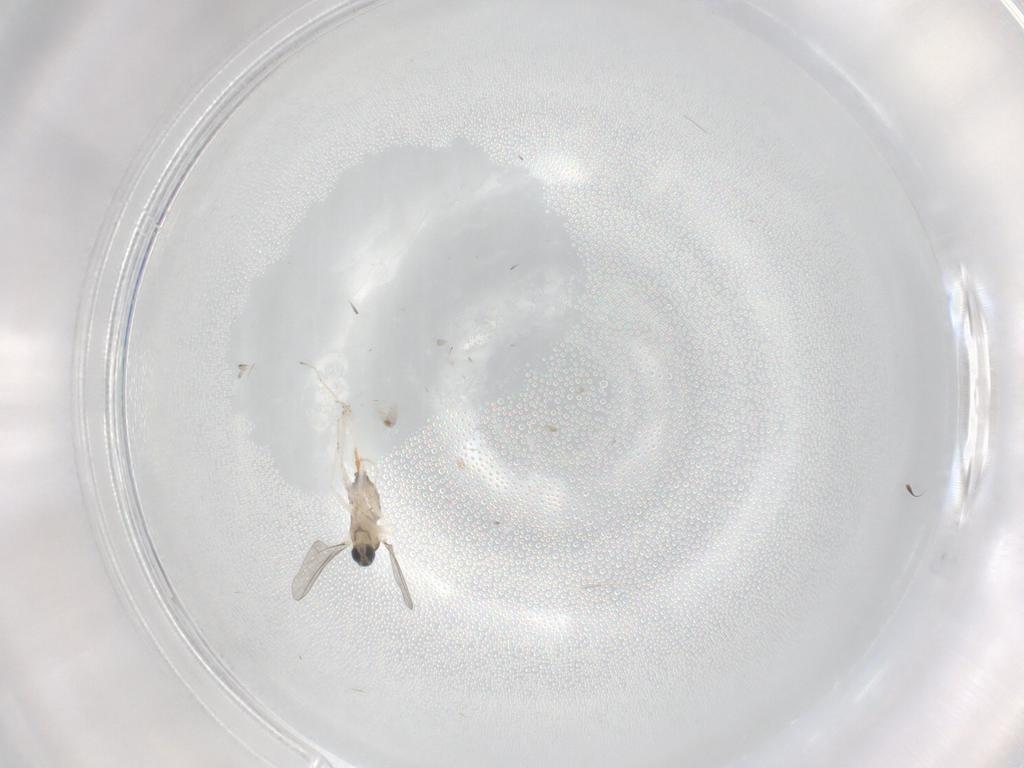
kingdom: Animalia
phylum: Arthropoda
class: Insecta
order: Diptera
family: Cecidomyiidae
